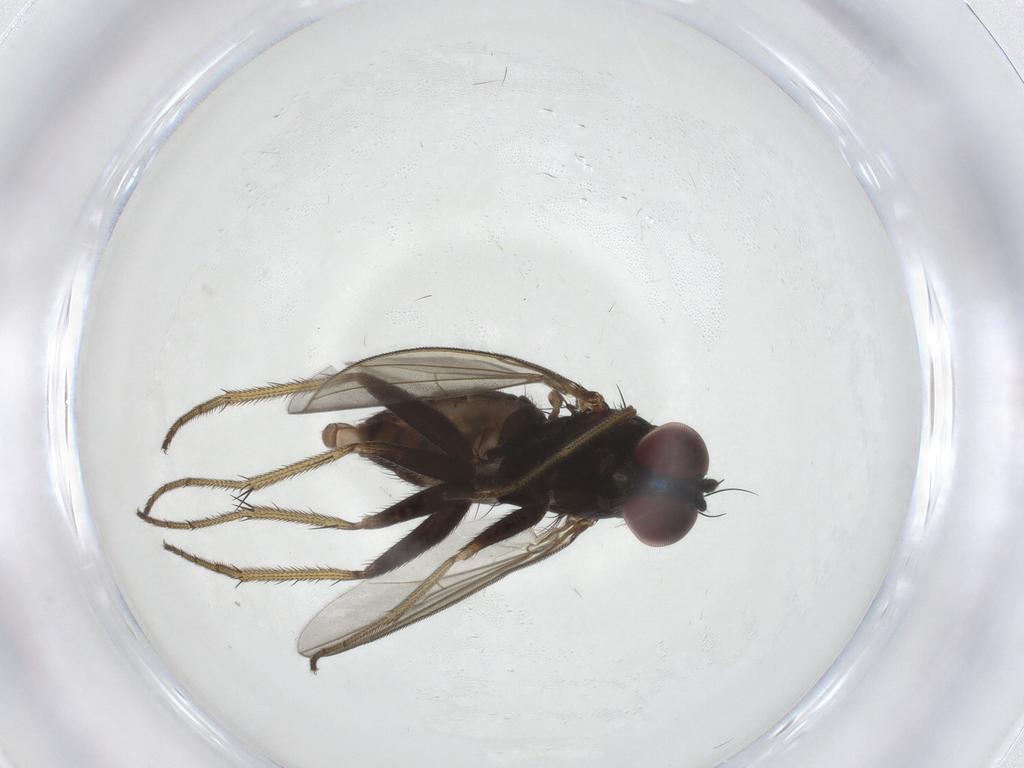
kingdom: Animalia
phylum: Arthropoda
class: Insecta
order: Diptera
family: Dolichopodidae
